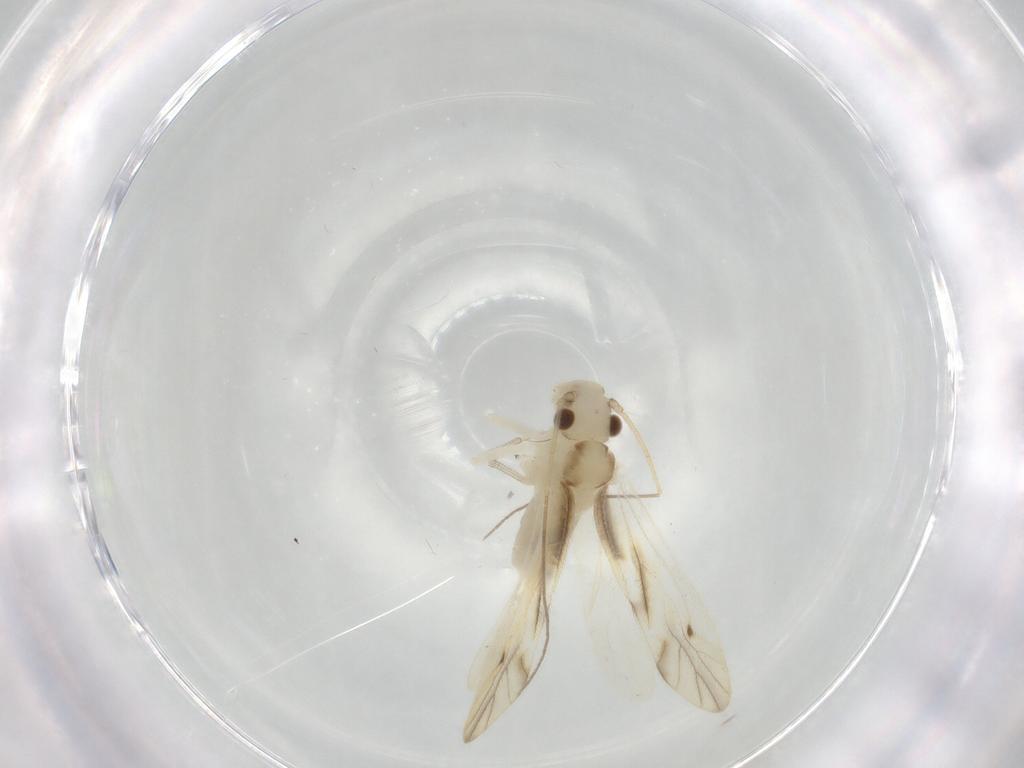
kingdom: Animalia
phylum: Arthropoda
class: Insecta
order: Psocodea
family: Caeciliusidae
